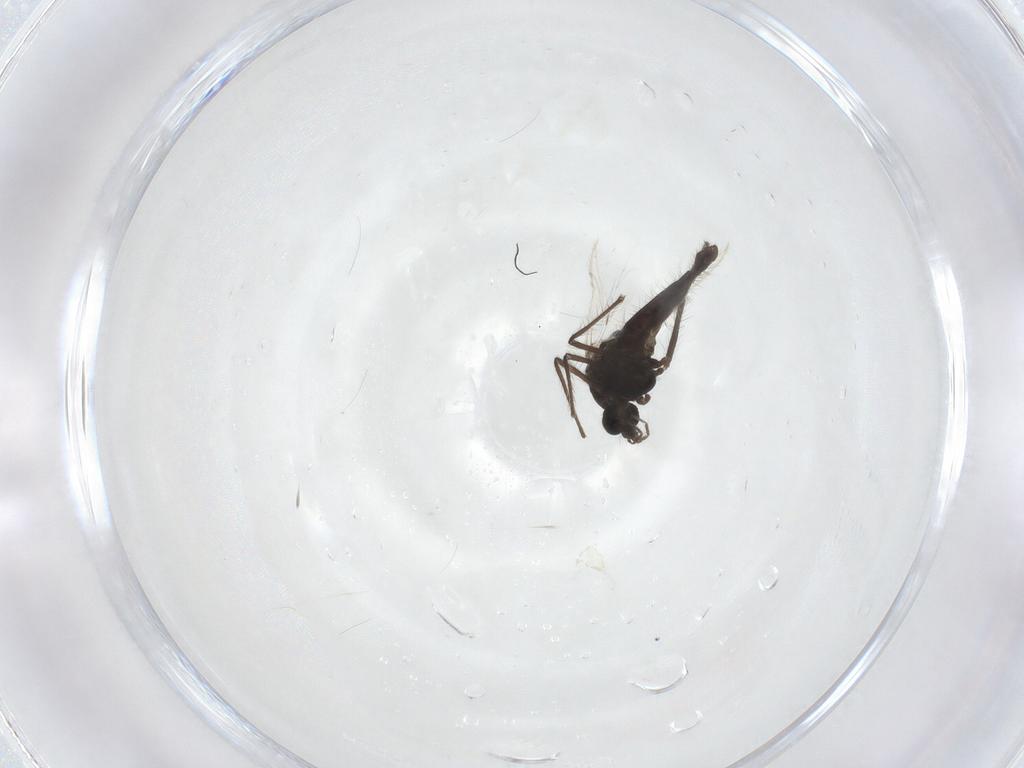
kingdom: Animalia
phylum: Arthropoda
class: Insecta
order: Diptera
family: Chironomidae
